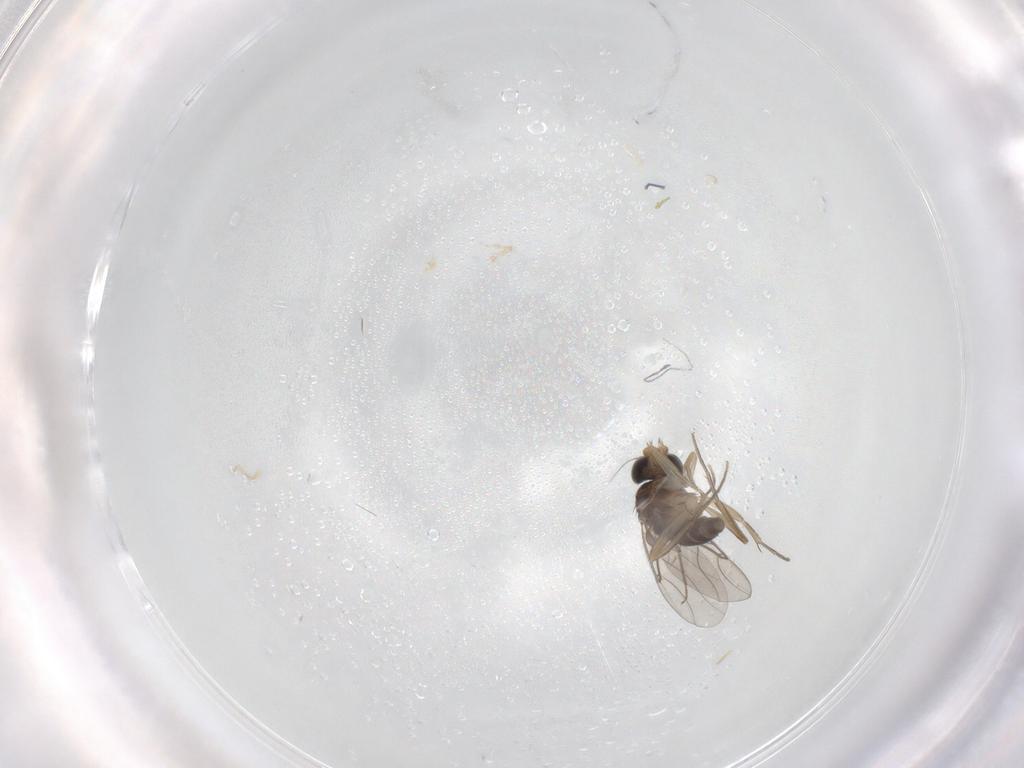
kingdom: Animalia
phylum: Arthropoda
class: Insecta
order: Diptera
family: Phoridae
